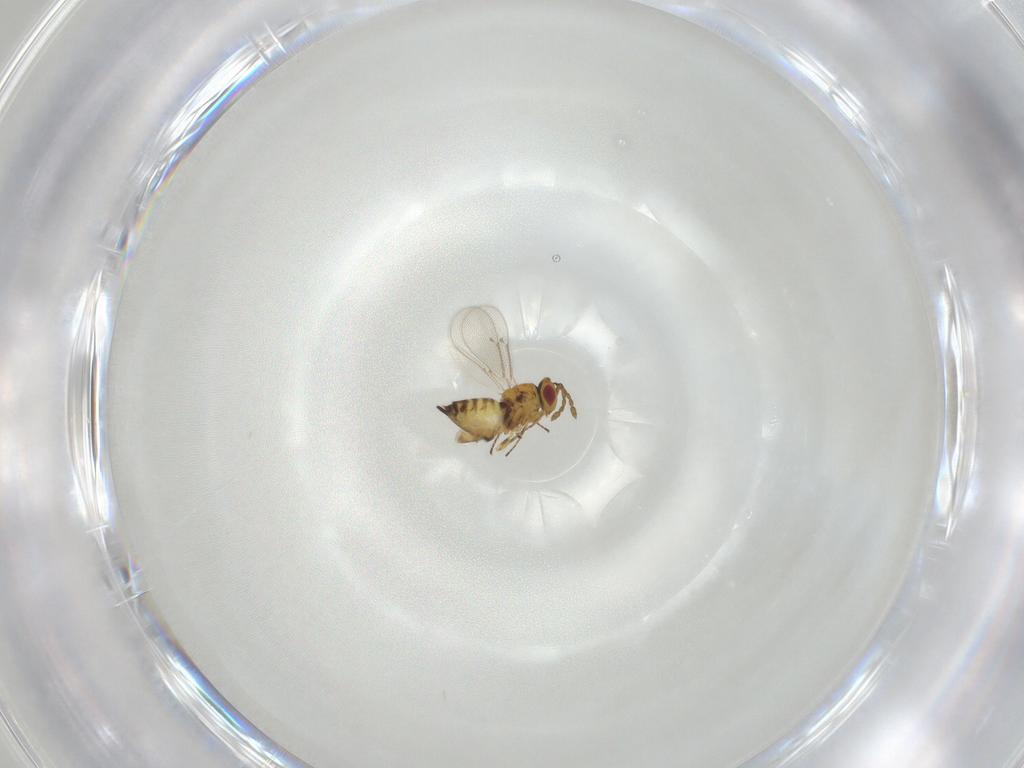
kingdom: Animalia
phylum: Arthropoda
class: Insecta
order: Hymenoptera
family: Eulophidae
